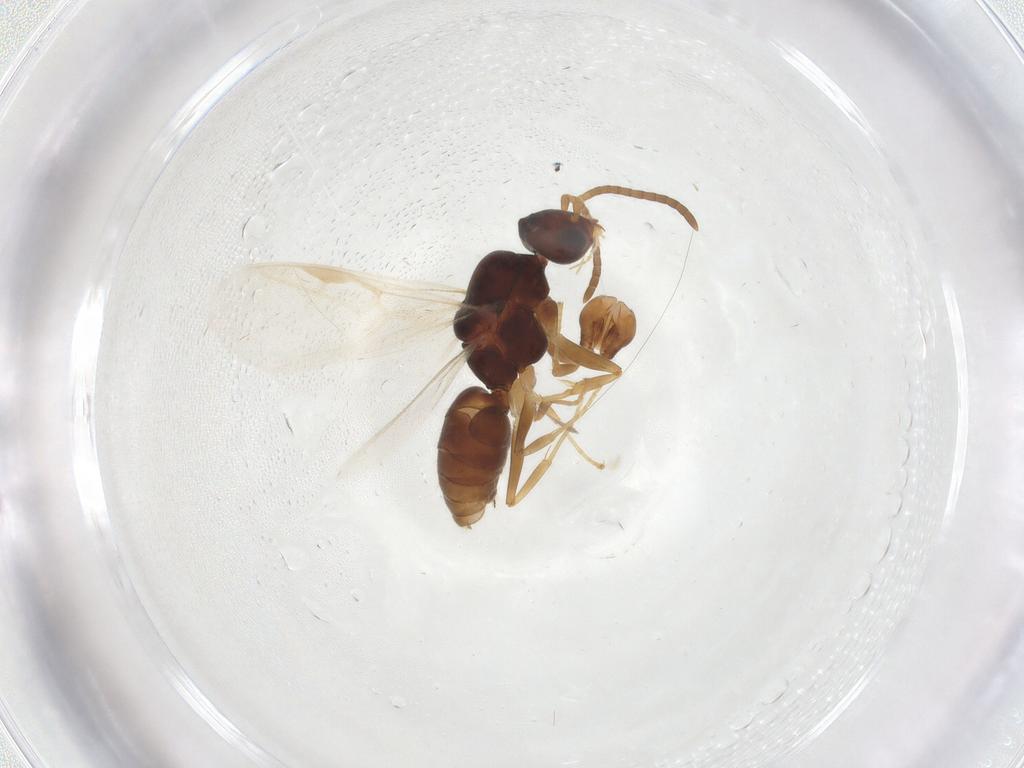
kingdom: Animalia
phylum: Arthropoda
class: Insecta
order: Hymenoptera
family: Formicidae
